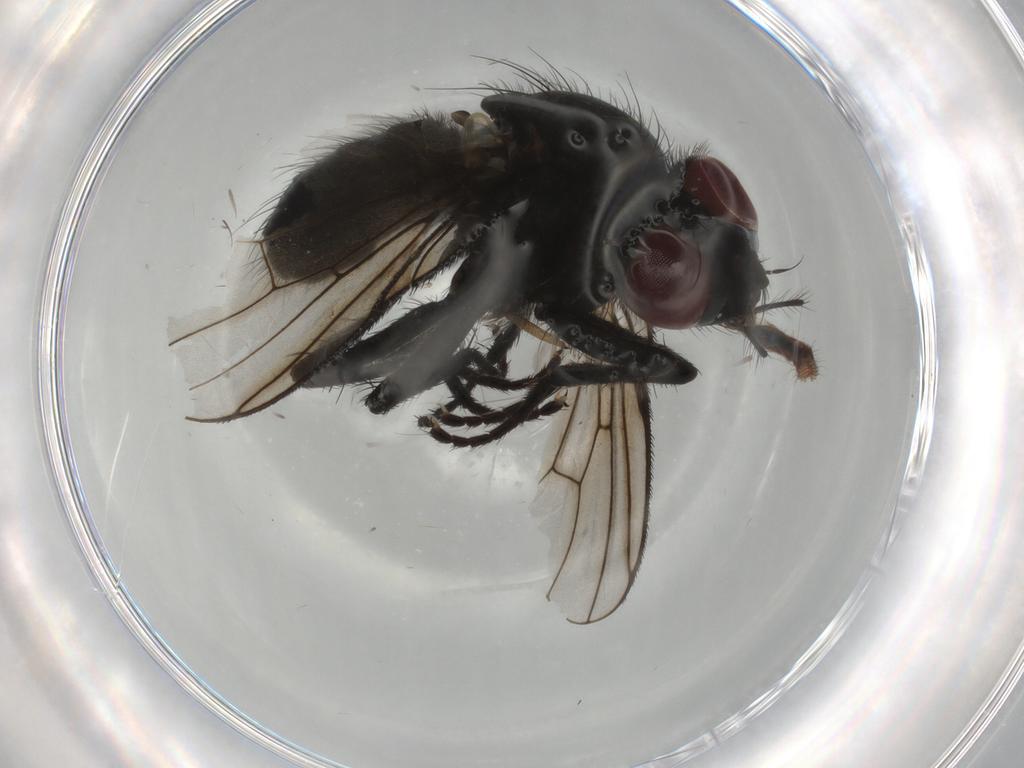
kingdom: Animalia
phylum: Arthropoda
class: Insecta
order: Diptera
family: Muscidae
